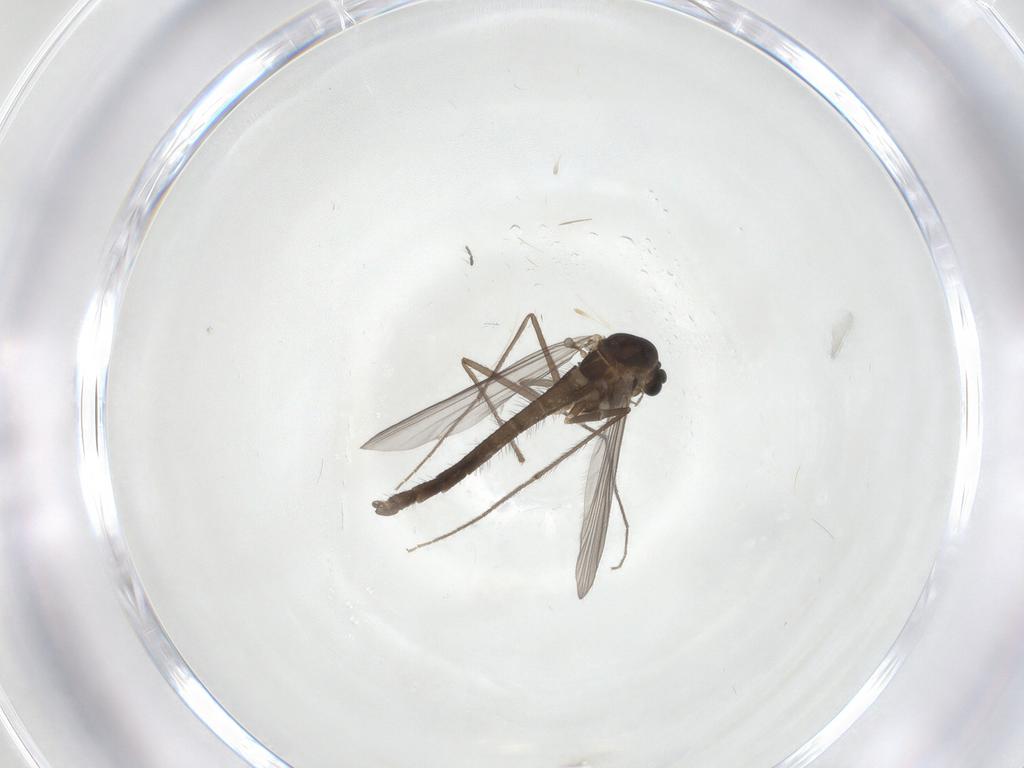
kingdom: Animalia
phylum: Arthropoda
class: Insecta
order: Diptera
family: Chironomidae
